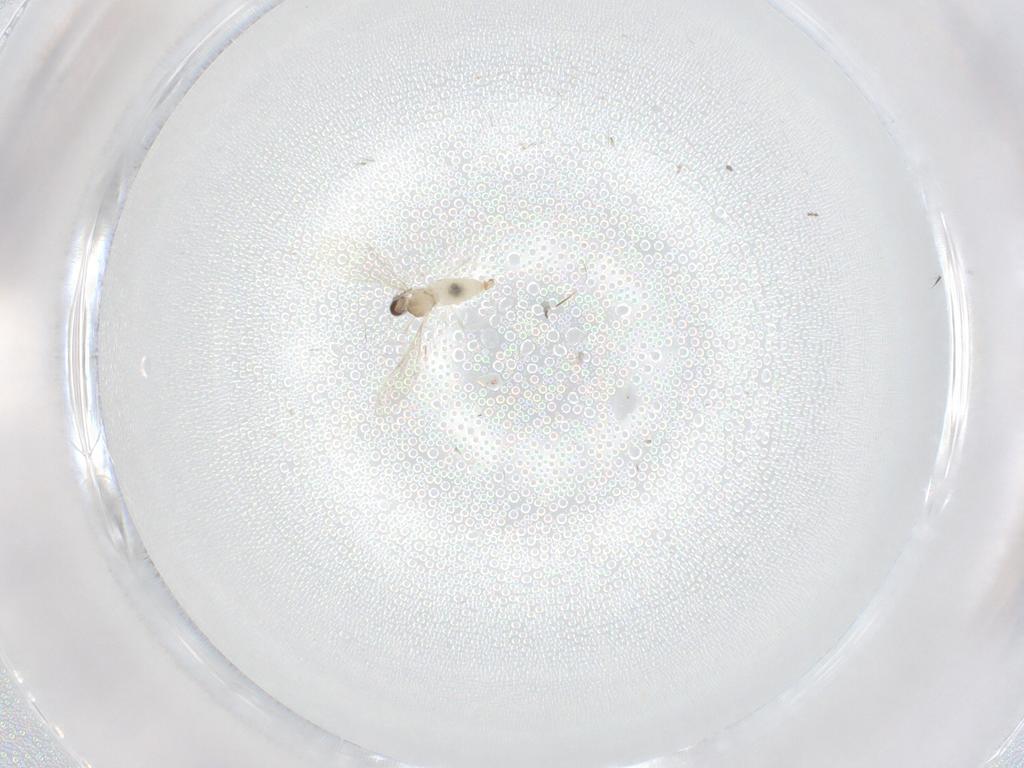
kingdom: Animalia
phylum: Arthropoda
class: Insecta
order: Diptera
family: Cecidomyiidae
